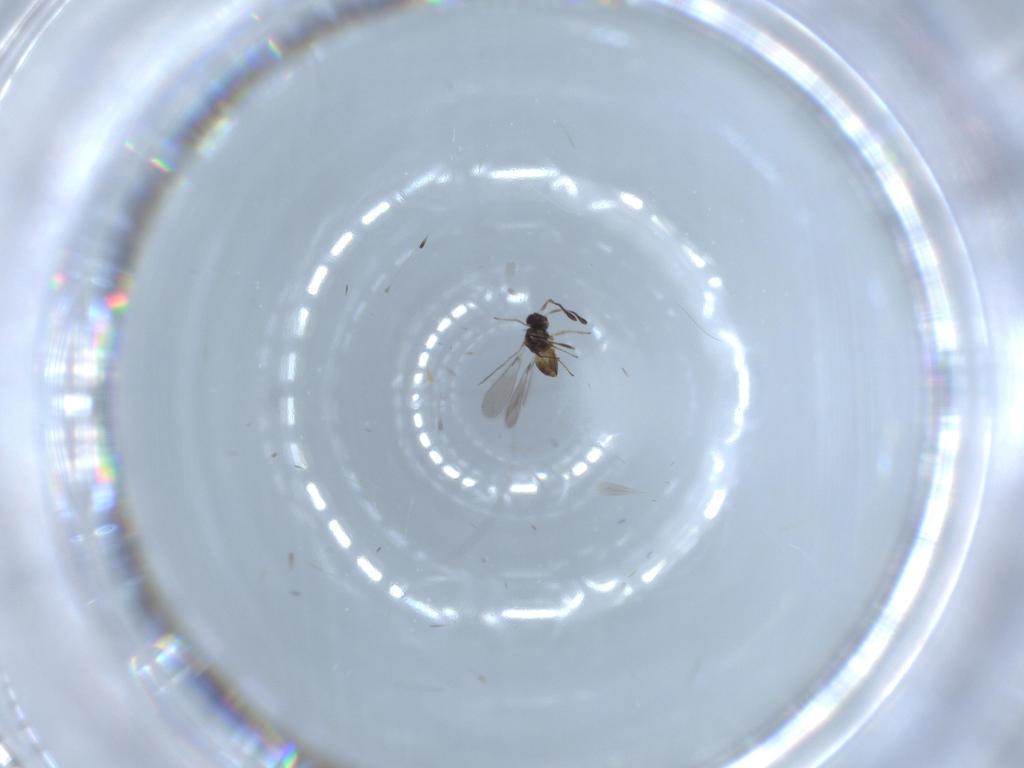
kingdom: Animalia
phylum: Arthropoda
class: Insecta
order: Hymenoptera
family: Mymaridae
